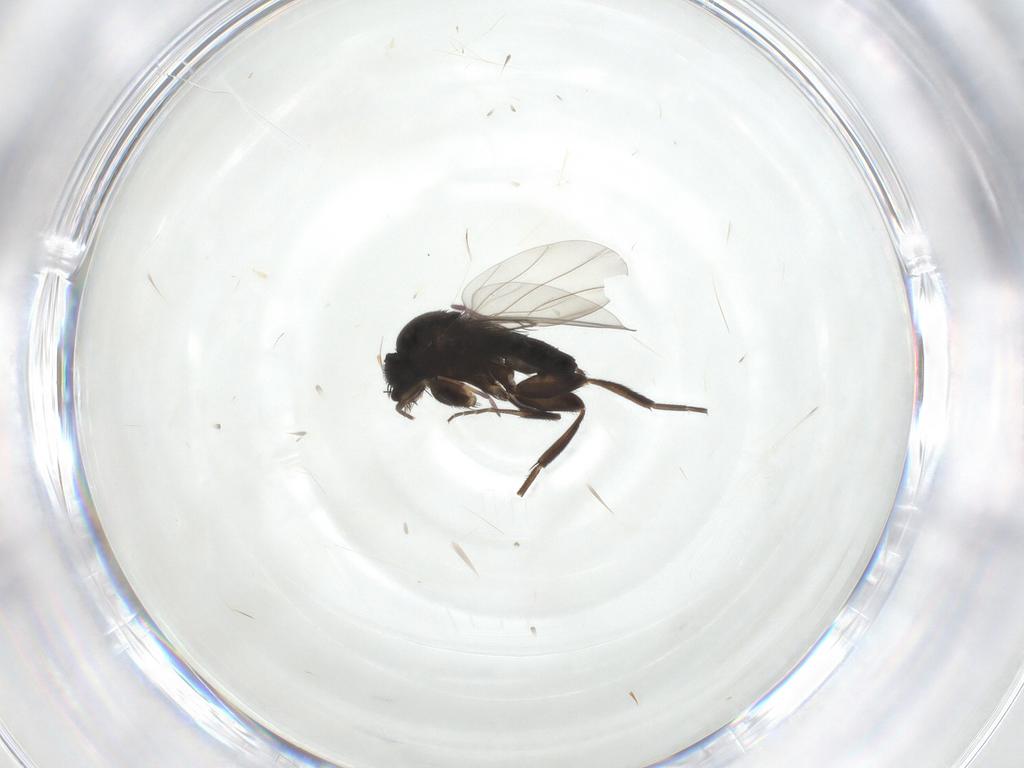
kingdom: Animalia
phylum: Arthropoda
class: Insecta
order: Diptera
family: Phoridae
